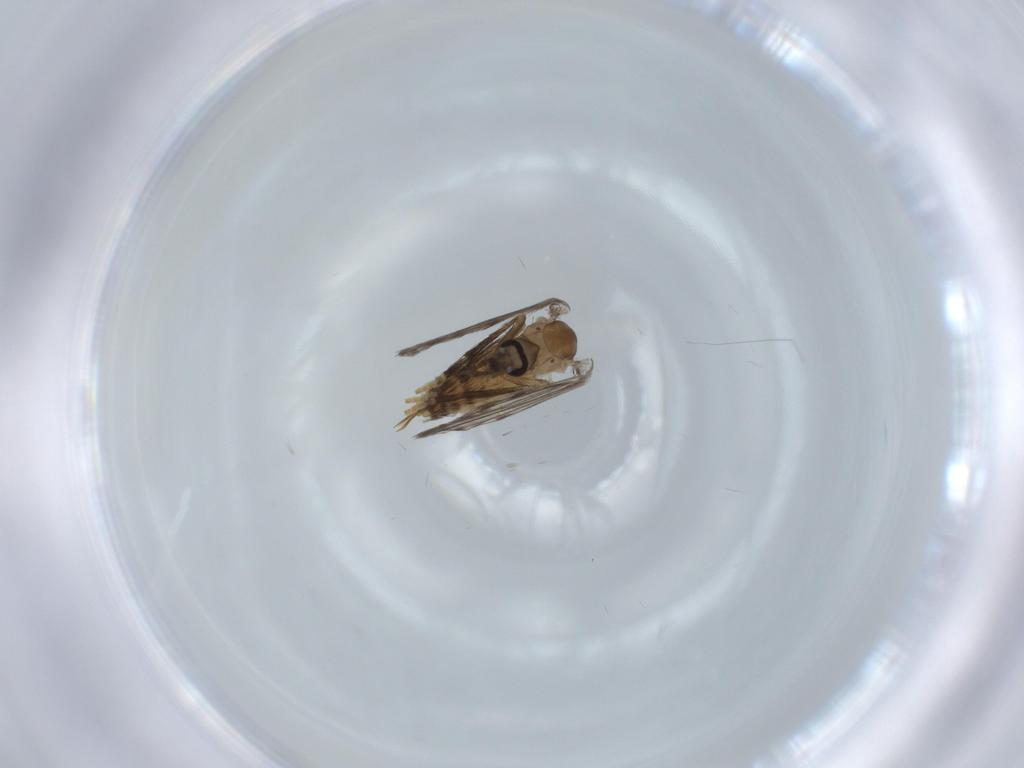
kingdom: Animalia
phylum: Arthropoda
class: Insecta
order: Diptera
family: Psychodidae
